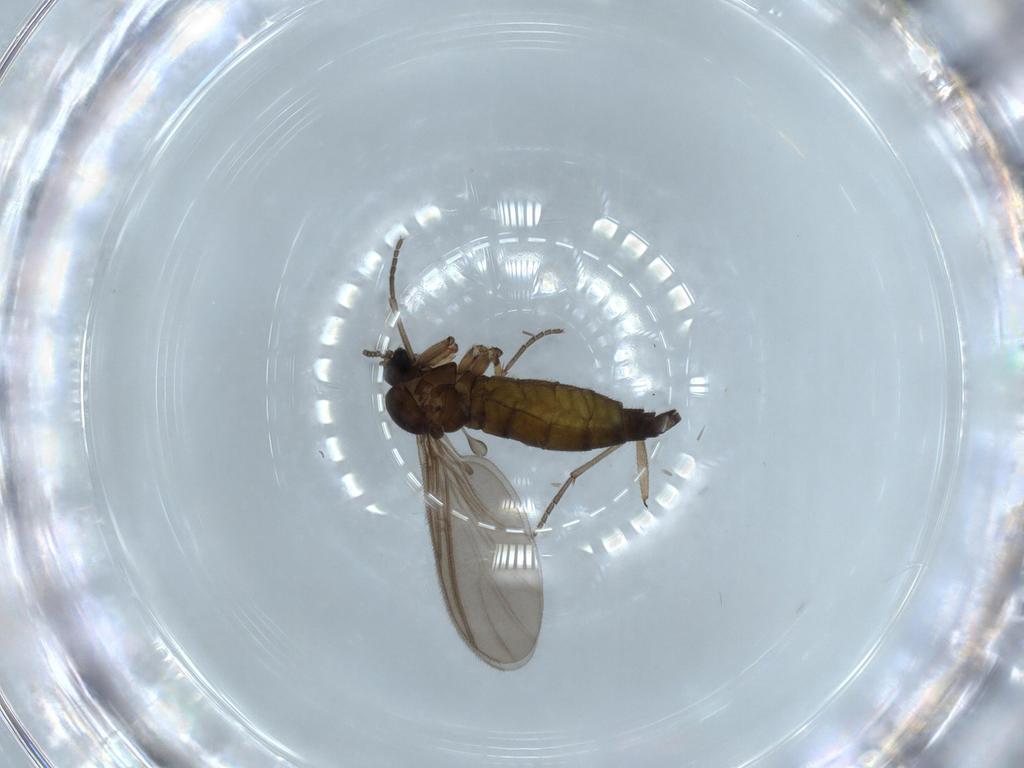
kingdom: Animalia
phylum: Arthropoda
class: Insecta
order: Diptera
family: Sciaridae
